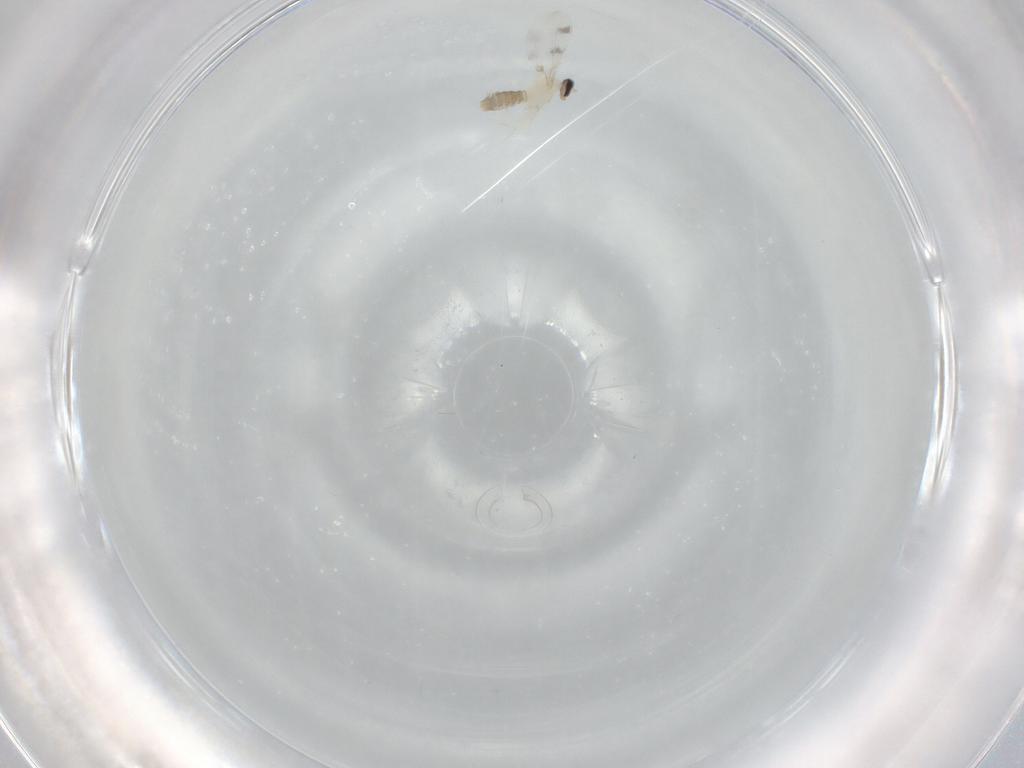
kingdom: Animalia
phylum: Arthropoda
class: Insecta
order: Diptera
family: Cecidomyiidae
